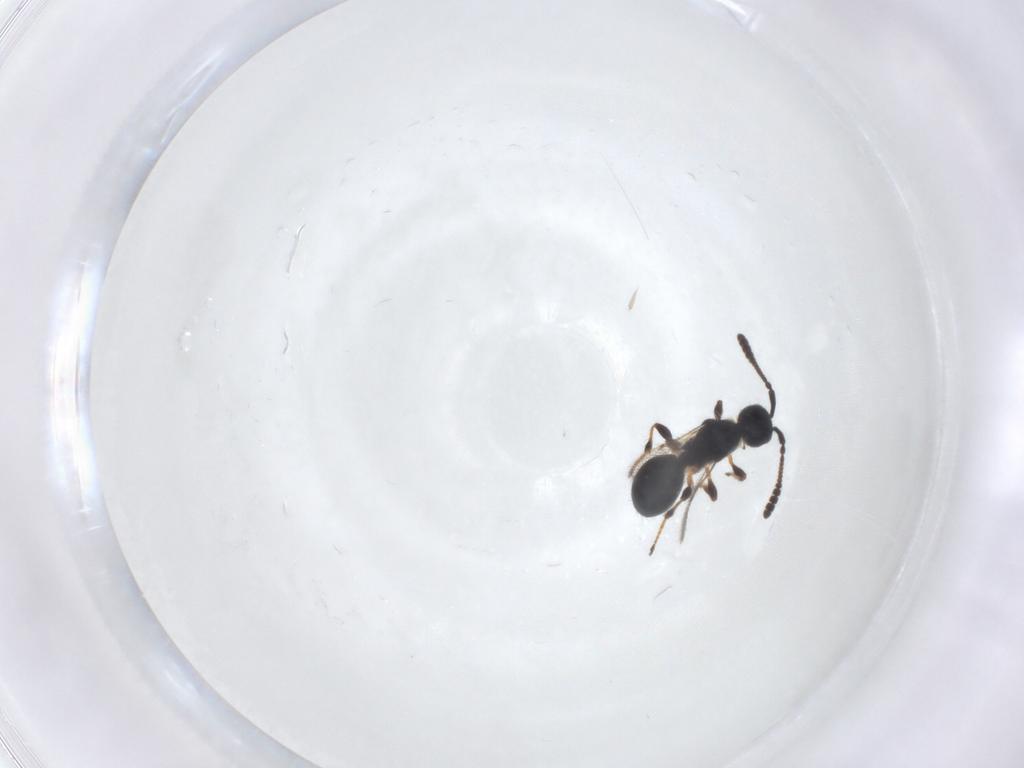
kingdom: Animalia
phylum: Arthropoda
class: Insecta
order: Hymenoptera
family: Diapriidae
